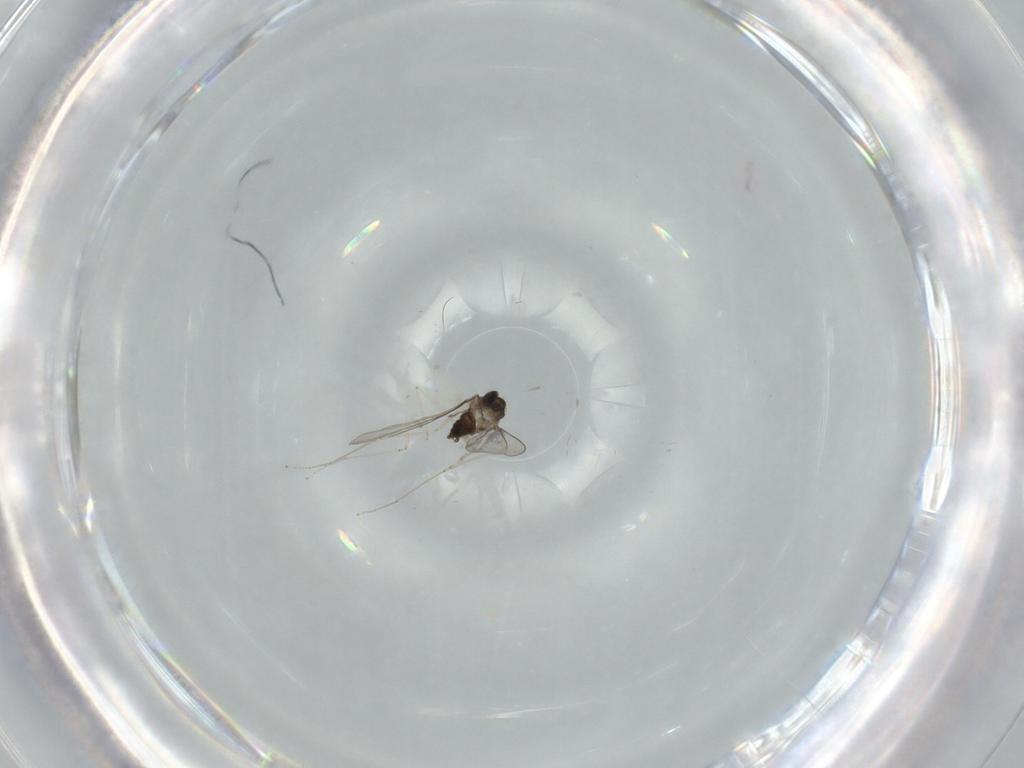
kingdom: Animalia
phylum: Arthropoda
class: Insecta
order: Diptera
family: Cecidomyiidae
